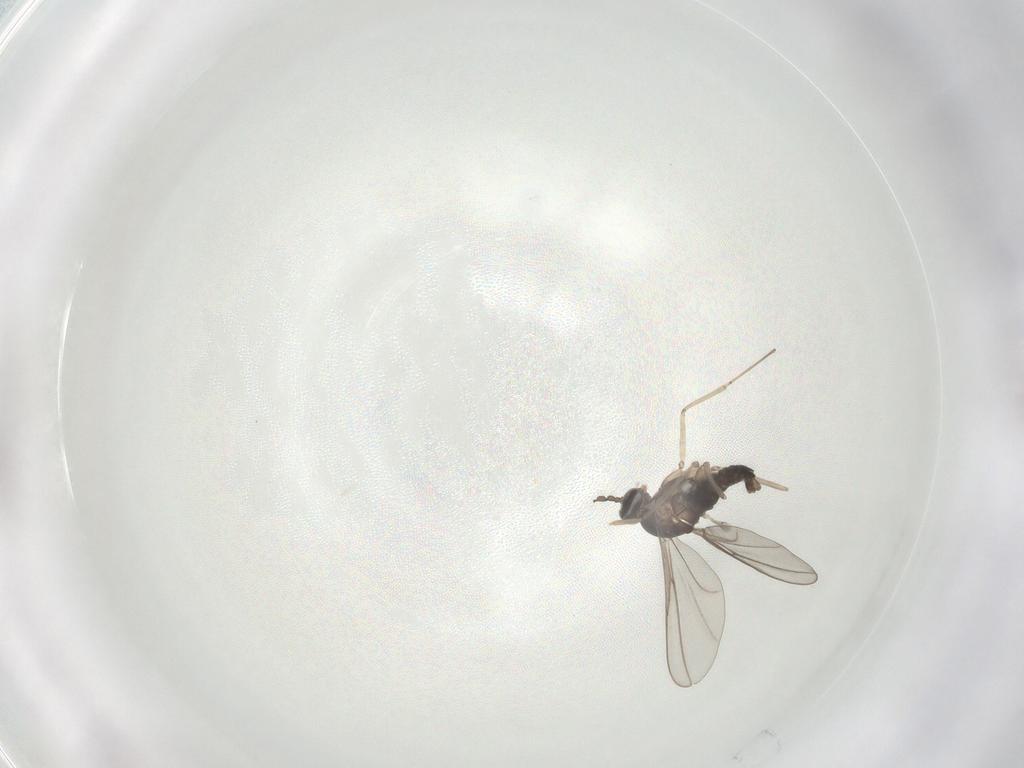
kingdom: Animalia
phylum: Arthropoda
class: Insecta
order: Diptera
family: Cecidomyiidae
